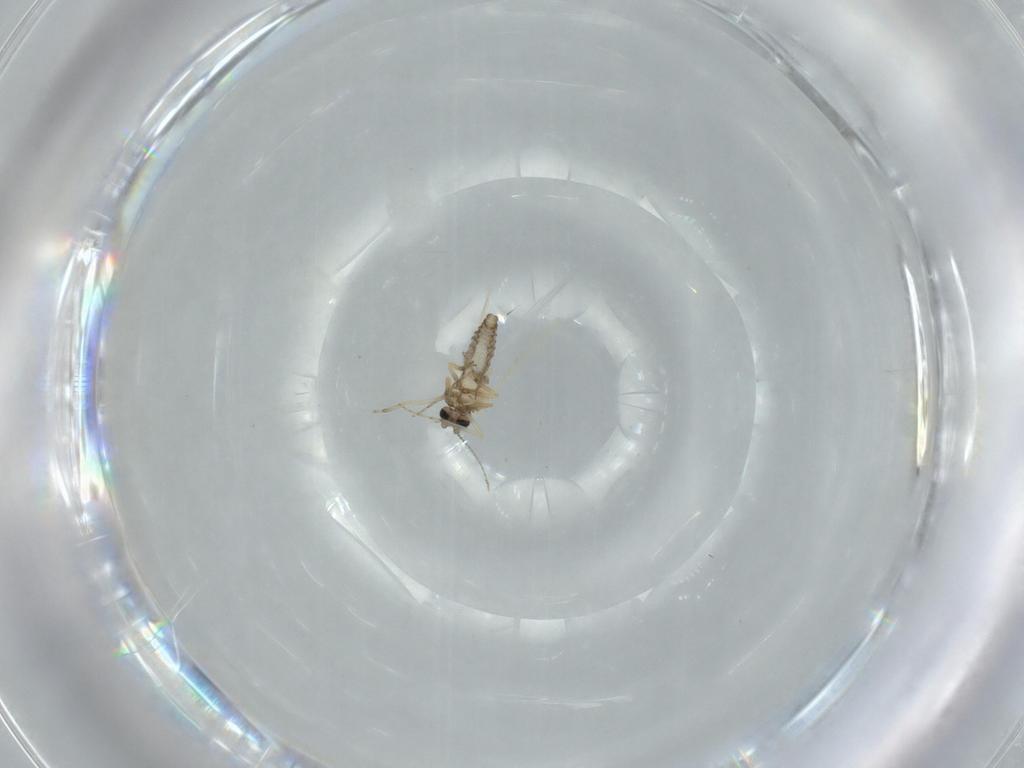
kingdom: Animalia
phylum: Arthropoda
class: Insecta
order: Diptera
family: Ceratopogonidae
